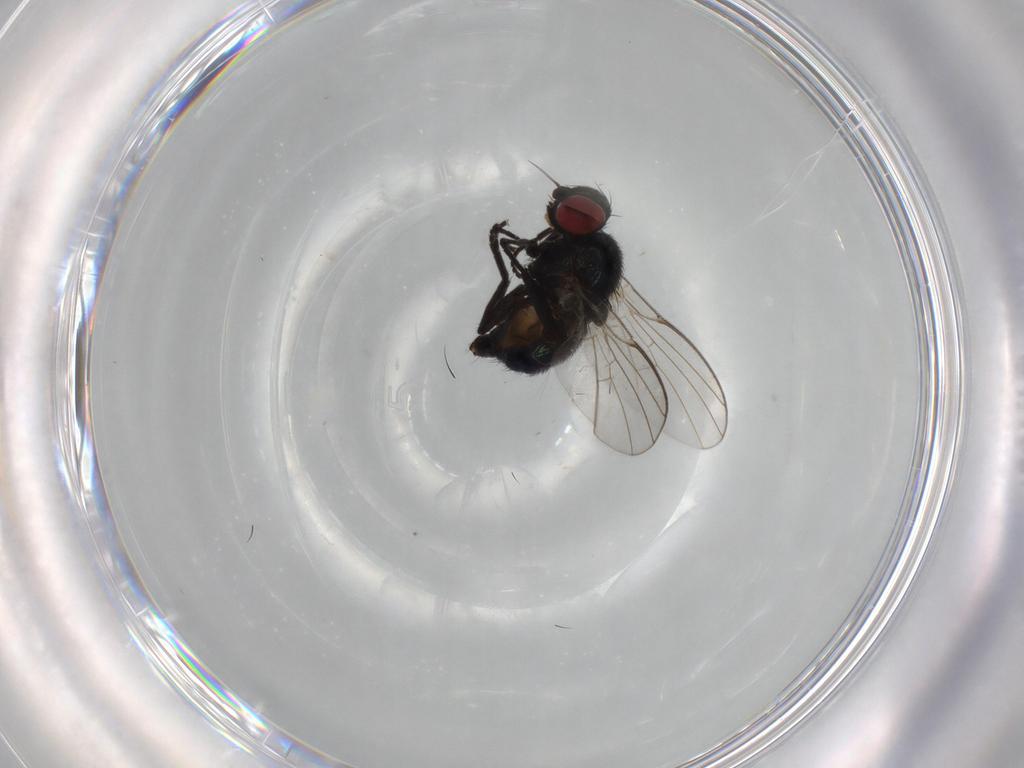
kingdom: Animalia
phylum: Arthropoda
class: Insecta
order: Diptera
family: Agromyzidae
